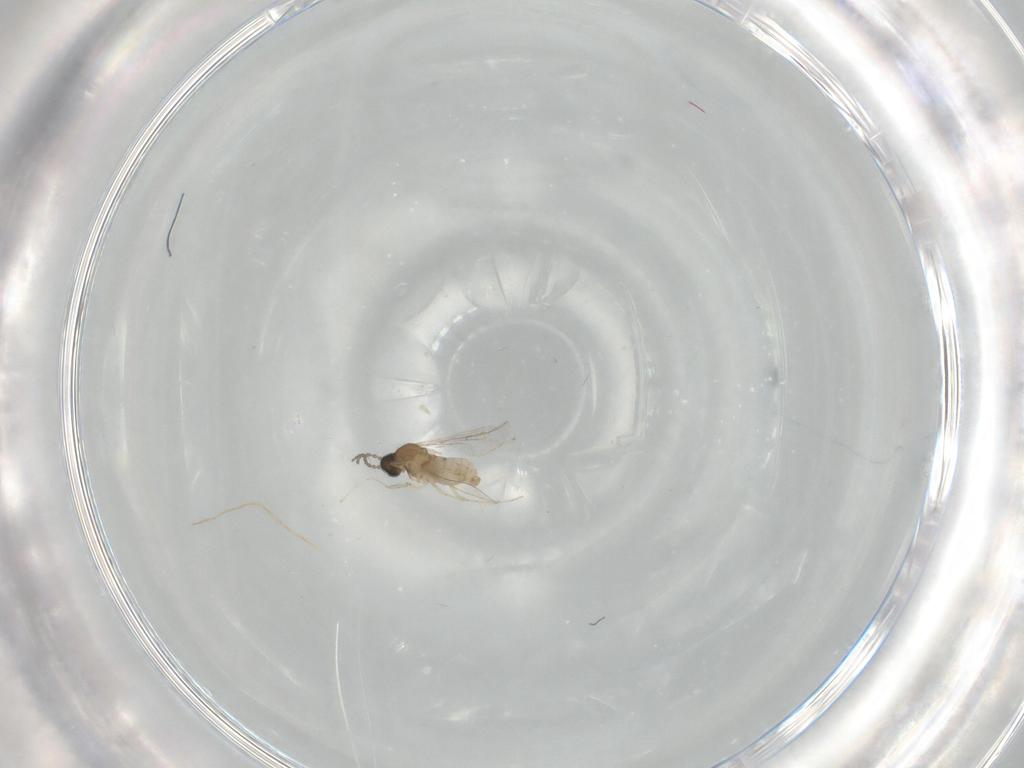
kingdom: Animalia
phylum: Arthropoda
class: Insecta
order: Diptera
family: Cecidomyiidae
